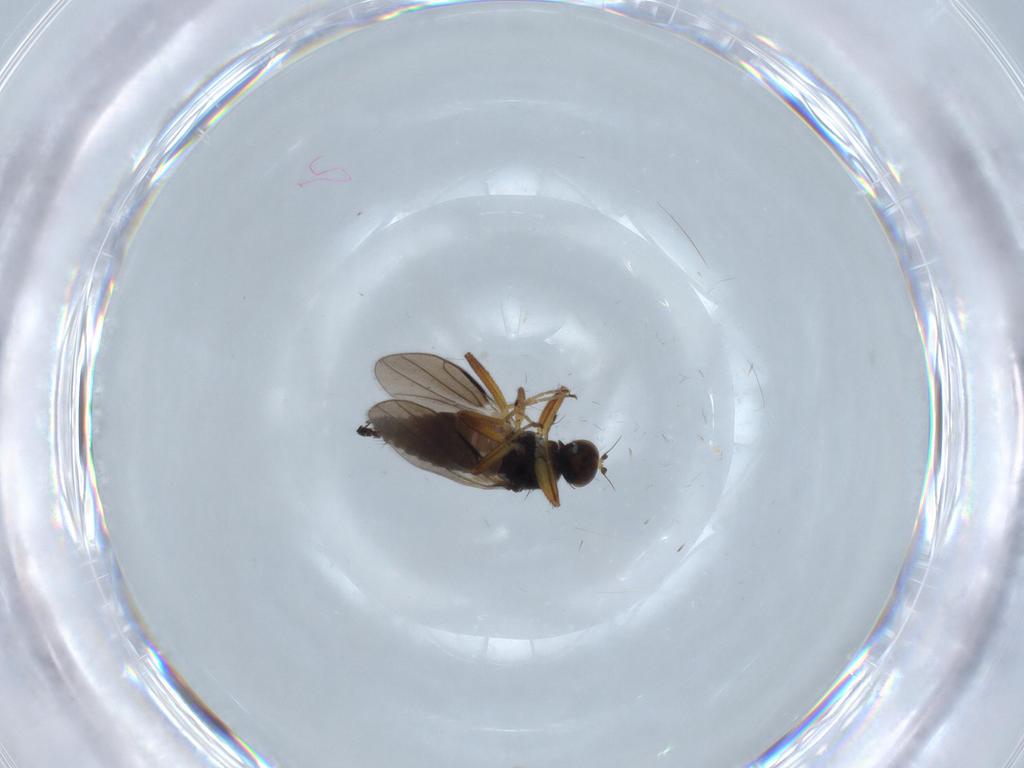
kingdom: Animalia
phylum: Arthropoda
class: Insecta
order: Diptera
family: Hybotidae
